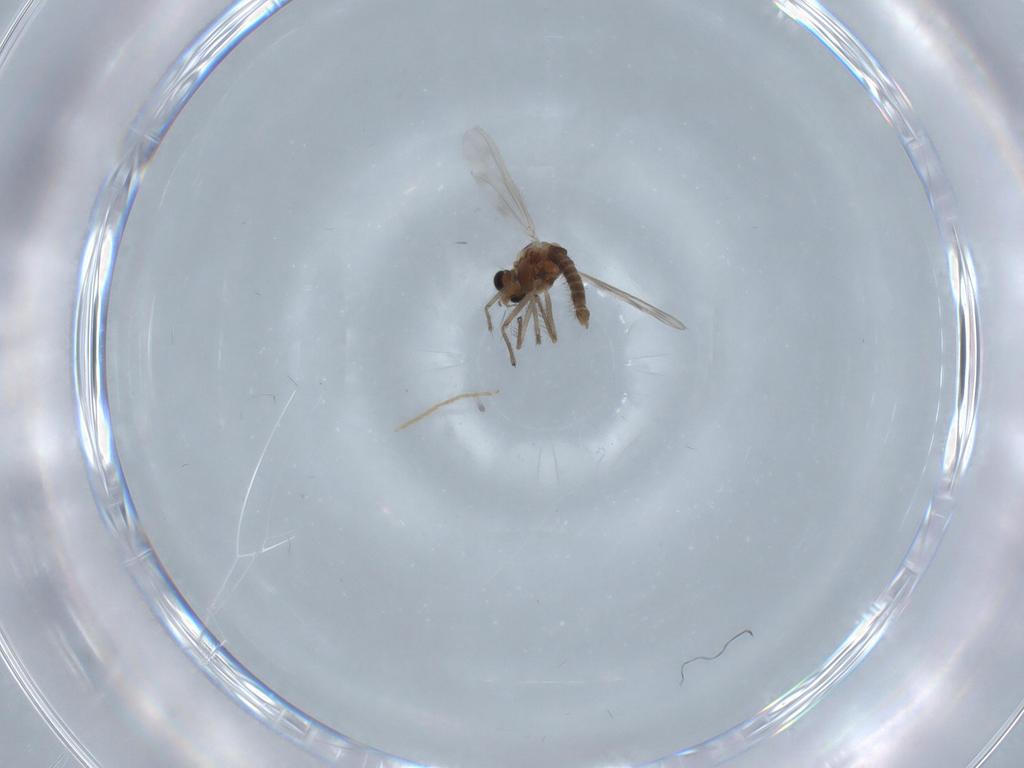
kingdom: Animalia
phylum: Arthropoda
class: Insecta
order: Diptera
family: Chironomidae
